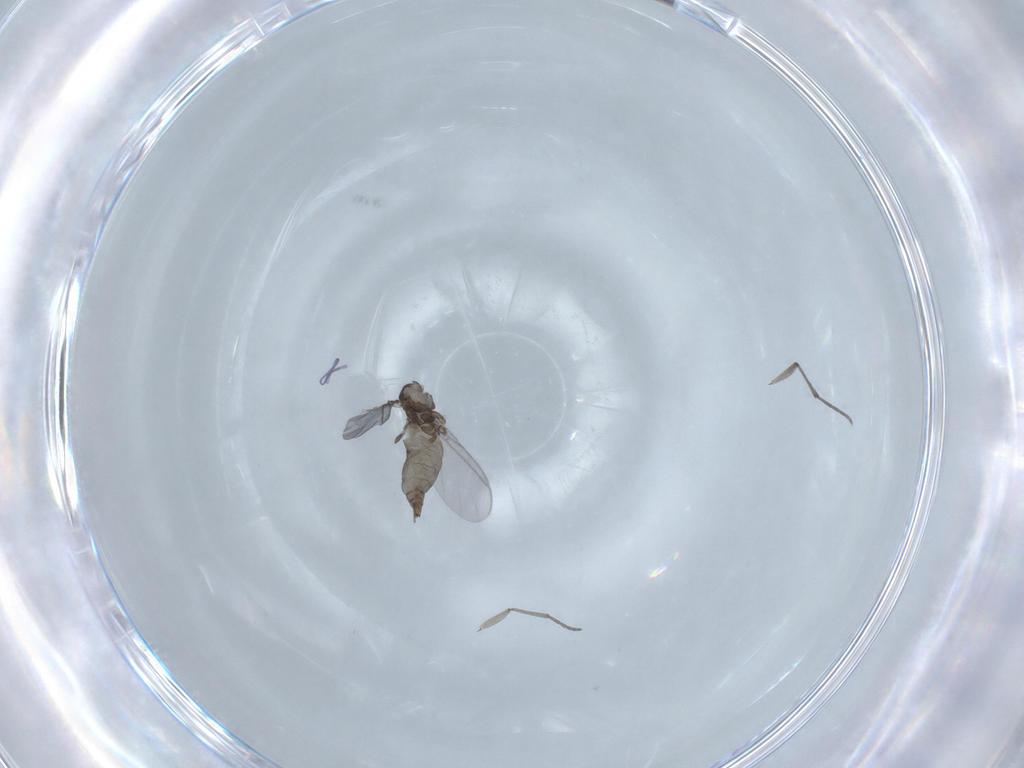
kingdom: Animalia
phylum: Arthropoda
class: Insecta
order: Diptera
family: Sciaridae
